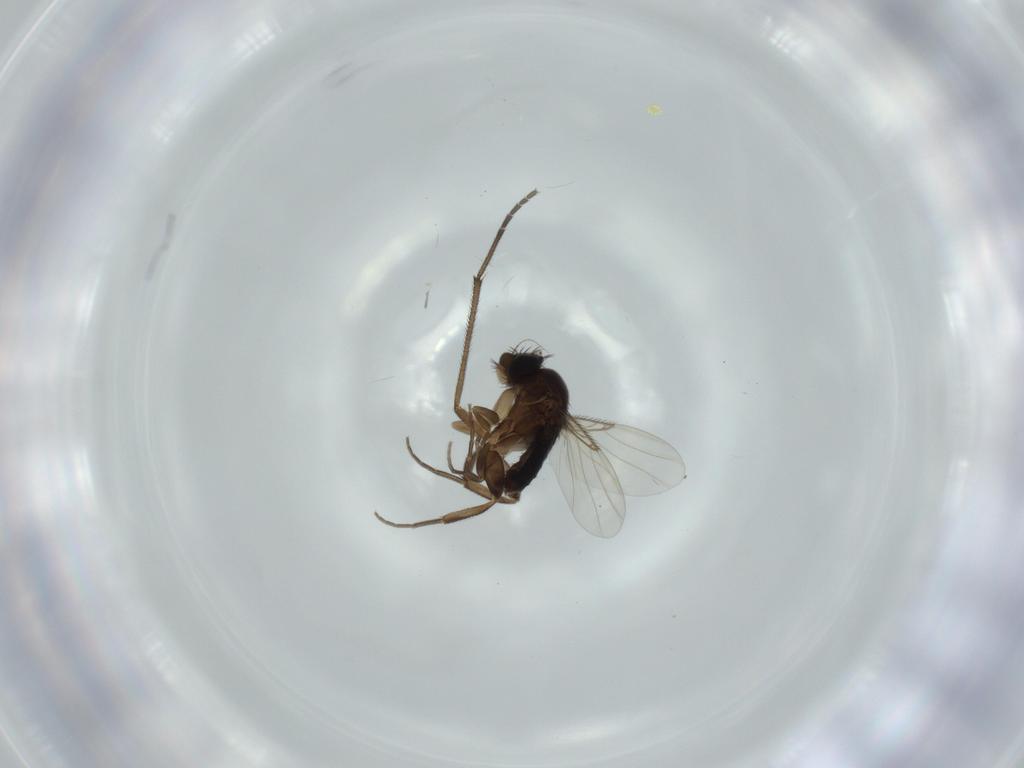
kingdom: Animalia
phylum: Arthropoda
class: Insecta
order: Diptera
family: Phoridae
